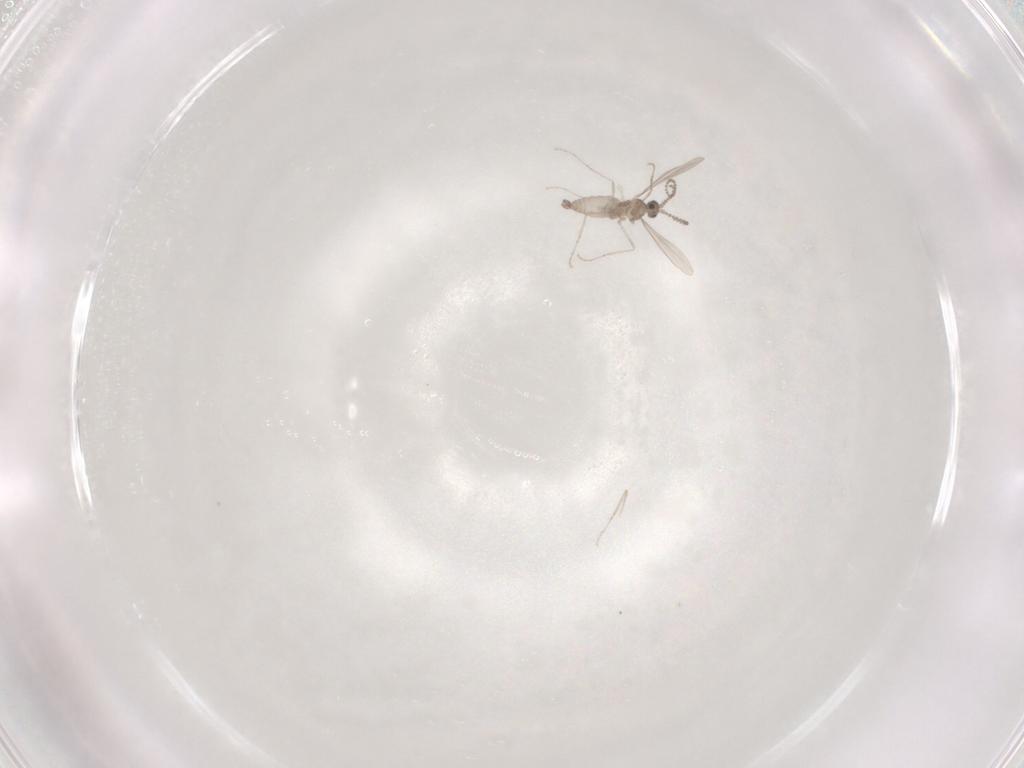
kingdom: Animalia
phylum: Arthropoda
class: Insecta
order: Diptera
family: Cecidomyiidae
